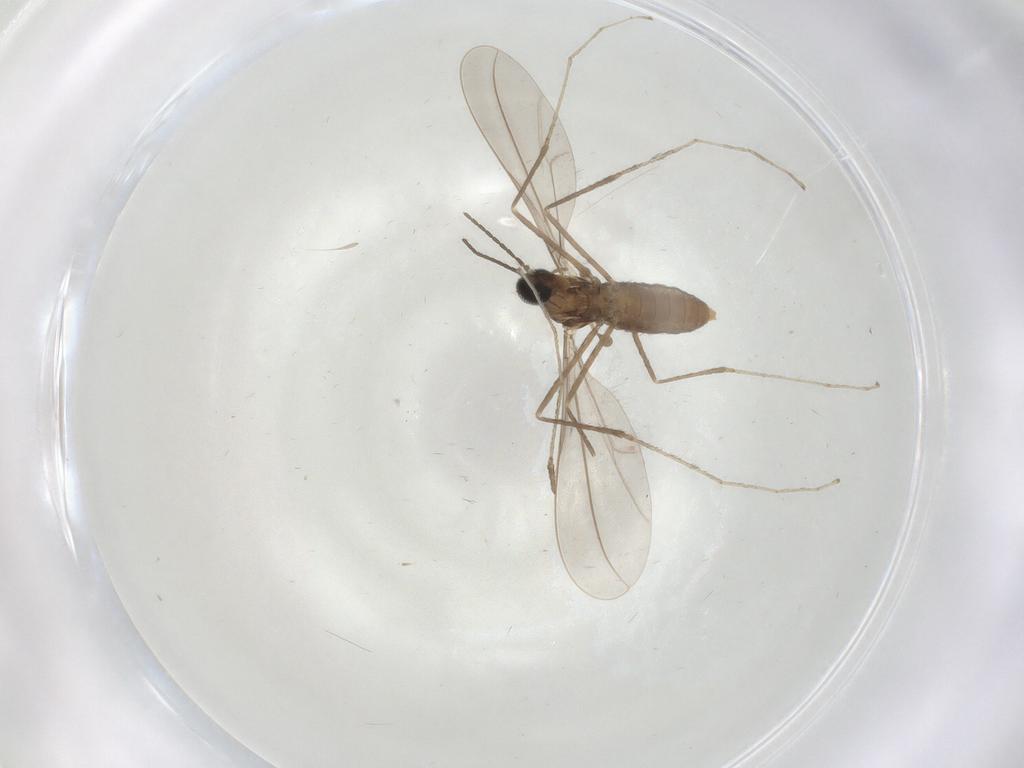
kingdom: Animalia
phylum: Arthropoda
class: Insecta
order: Diptera
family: Cecidomyiidae
